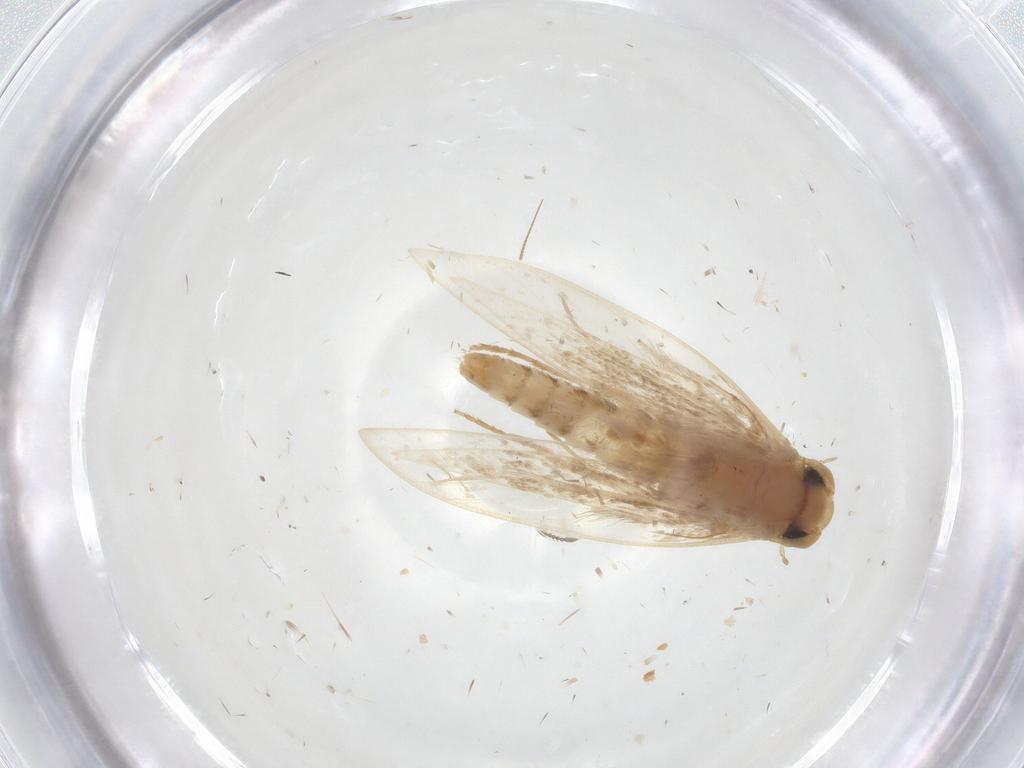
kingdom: Animalia
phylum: Arthropoda
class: Insecta
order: Lepidoptera
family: Tineidae
